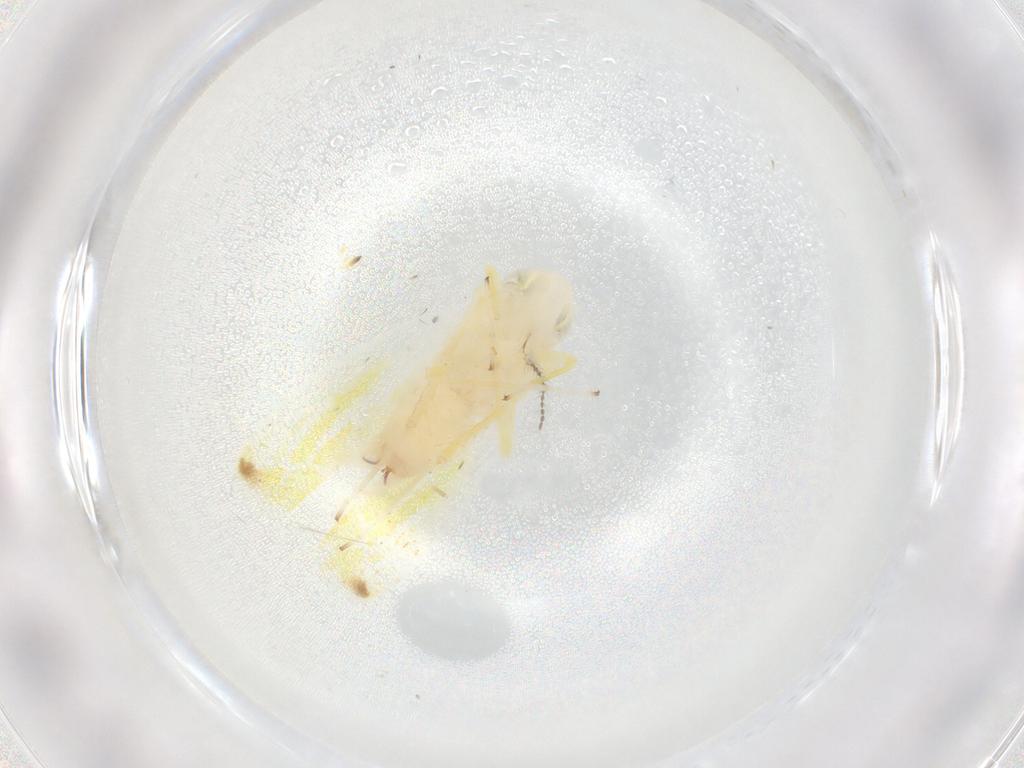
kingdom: Animalia
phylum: Arthropoda
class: Insecta
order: Hemiptera
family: Cicadellidae
